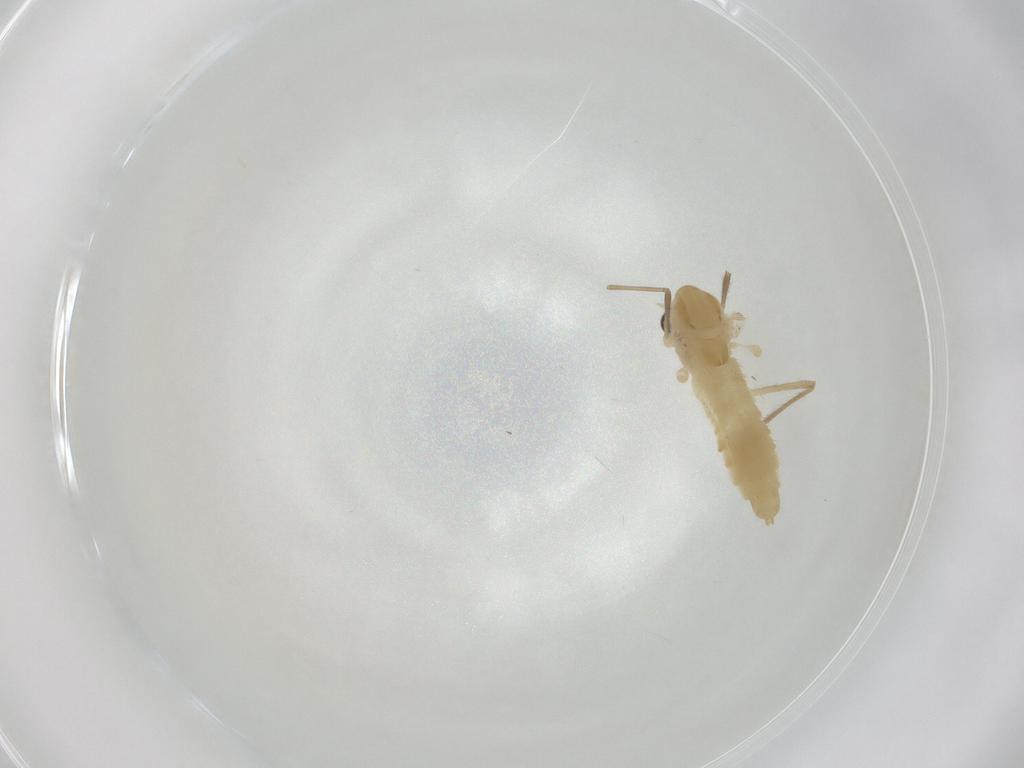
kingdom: Animalia
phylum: Arthropoda
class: Insecta
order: Diptera
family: Chironomidae
